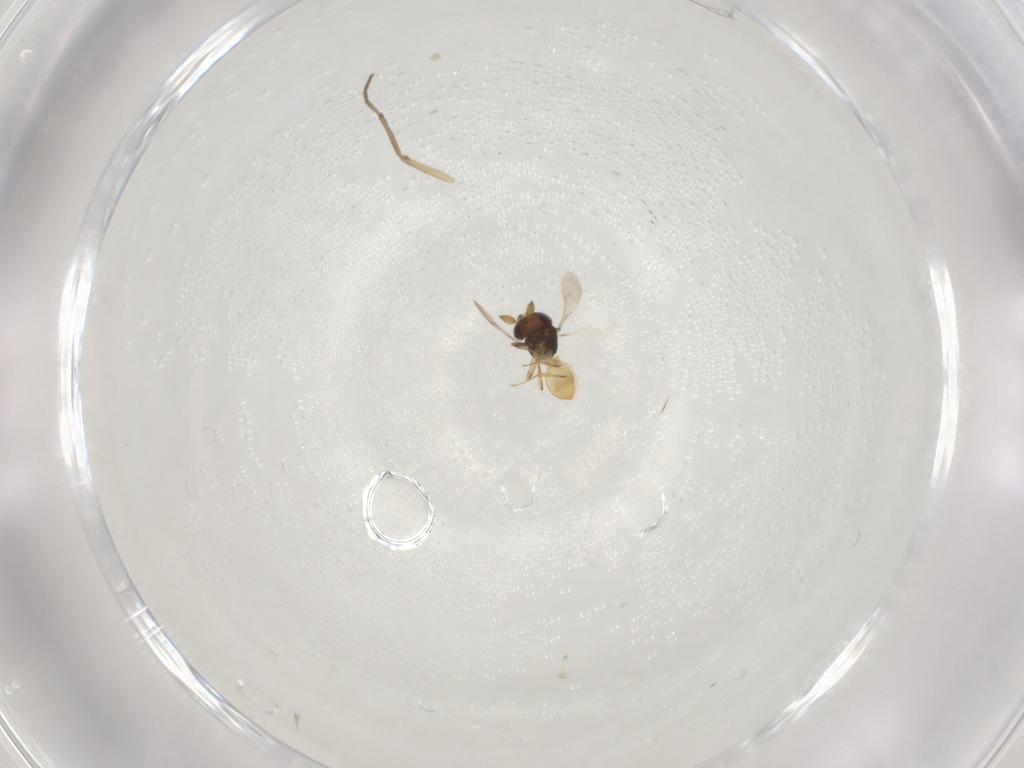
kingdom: Animalia
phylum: Arthropoda
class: Insecta
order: Hymenoptera
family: Scelionidae
